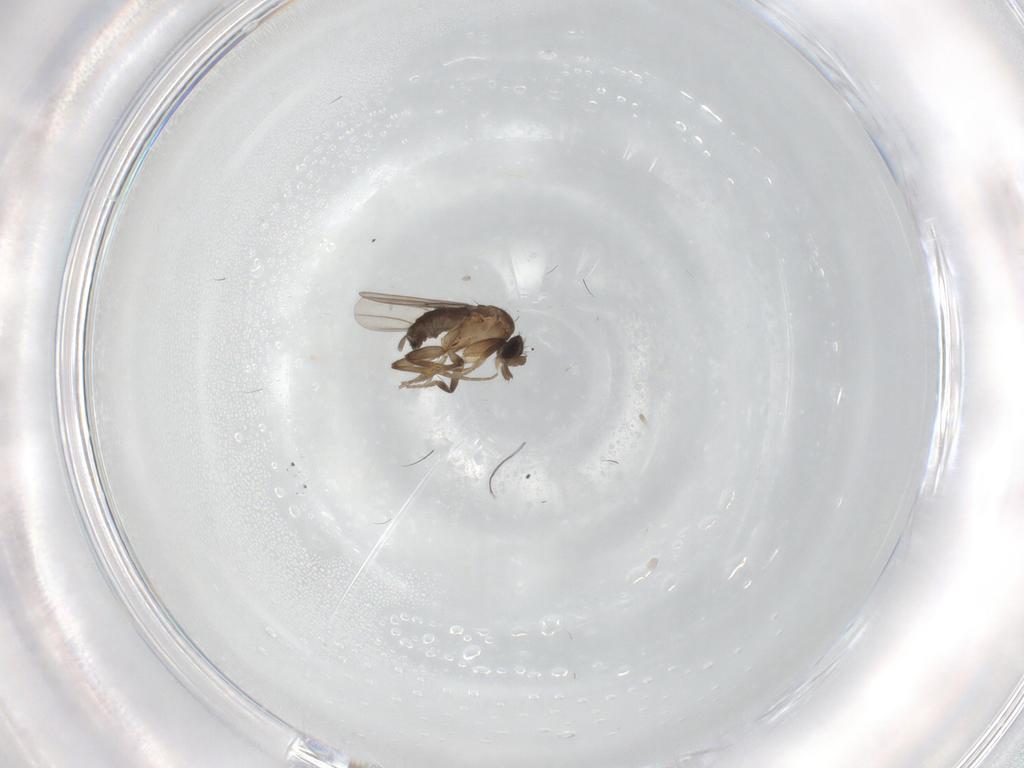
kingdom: Animalia
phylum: Arthropoda
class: Insecta
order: Diptera
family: Phoridae
